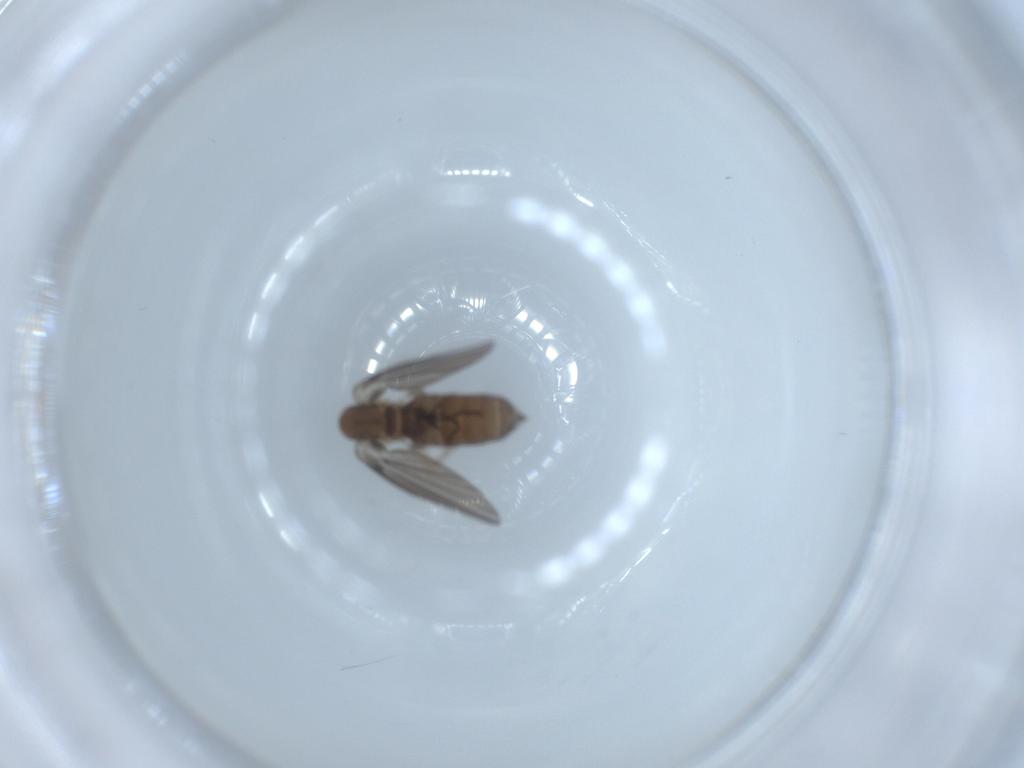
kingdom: Animalia
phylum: Arthropoda
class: Insecta
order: Diptera
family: Psychodidae
